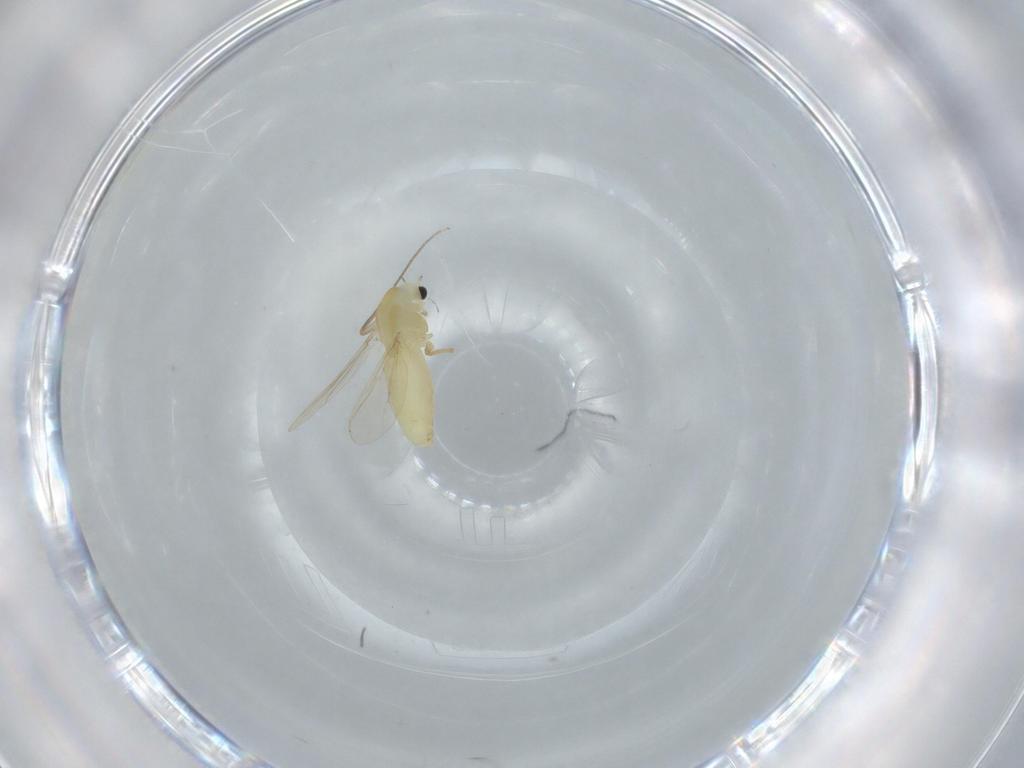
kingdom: Animalia
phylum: Arthropoda
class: Insecta
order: Diptera
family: Chironomidae
